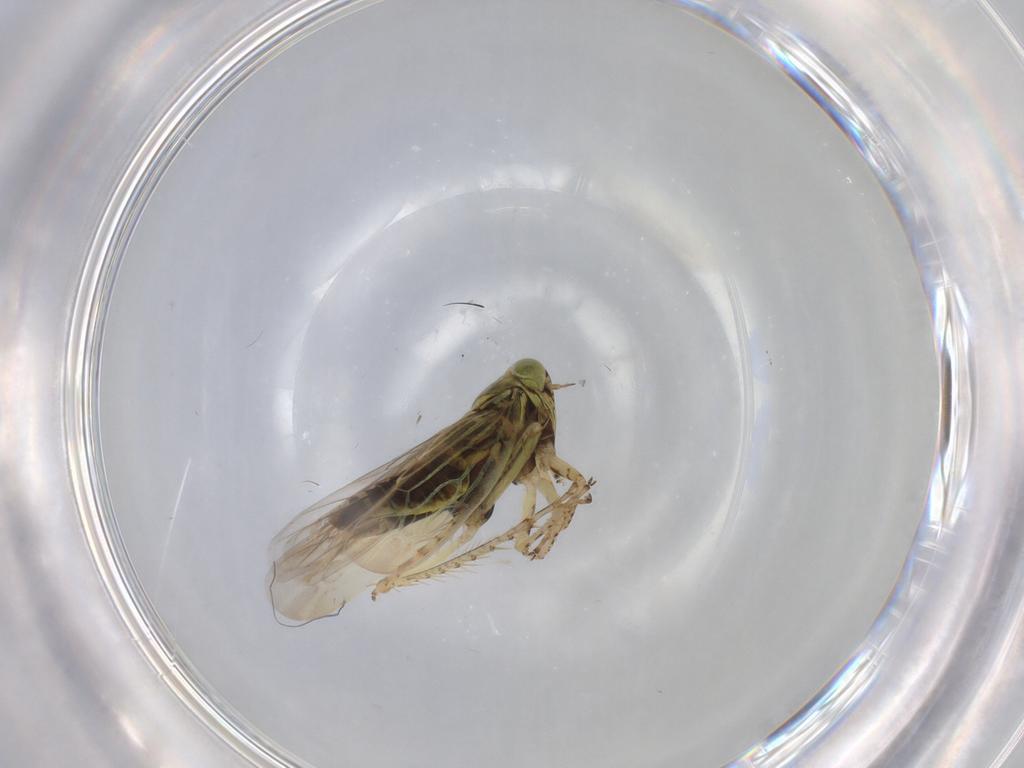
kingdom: Animalia
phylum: Arthropoda
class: Insecta
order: Hemiptera
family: Cicadellidae
